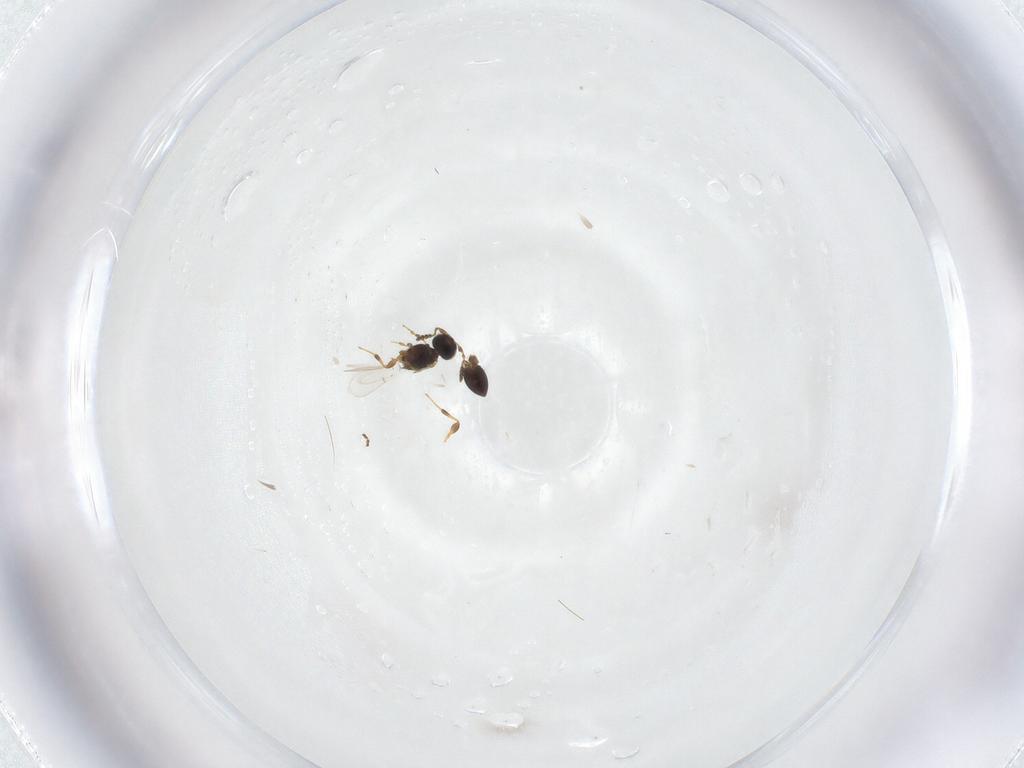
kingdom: Animalia
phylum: Arthropoda
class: Insecta
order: Hymenoptera
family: Platygastridae
